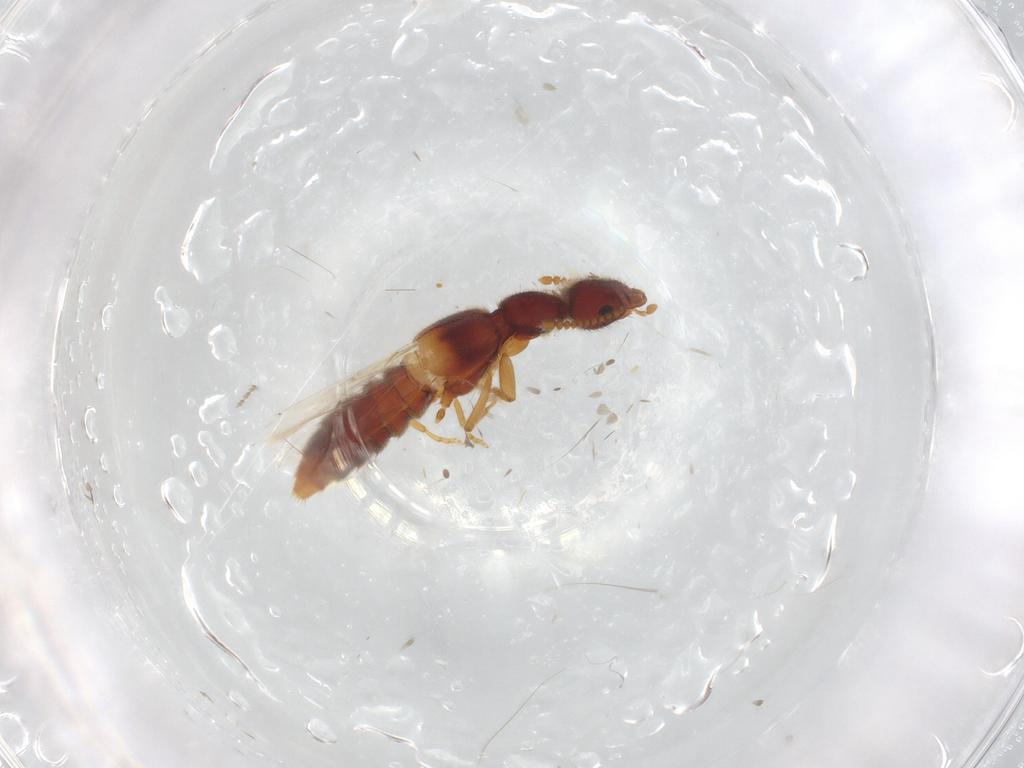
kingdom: Animalia
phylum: Arthropoda
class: Insecta
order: Coleoptera
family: Staphylinidae
